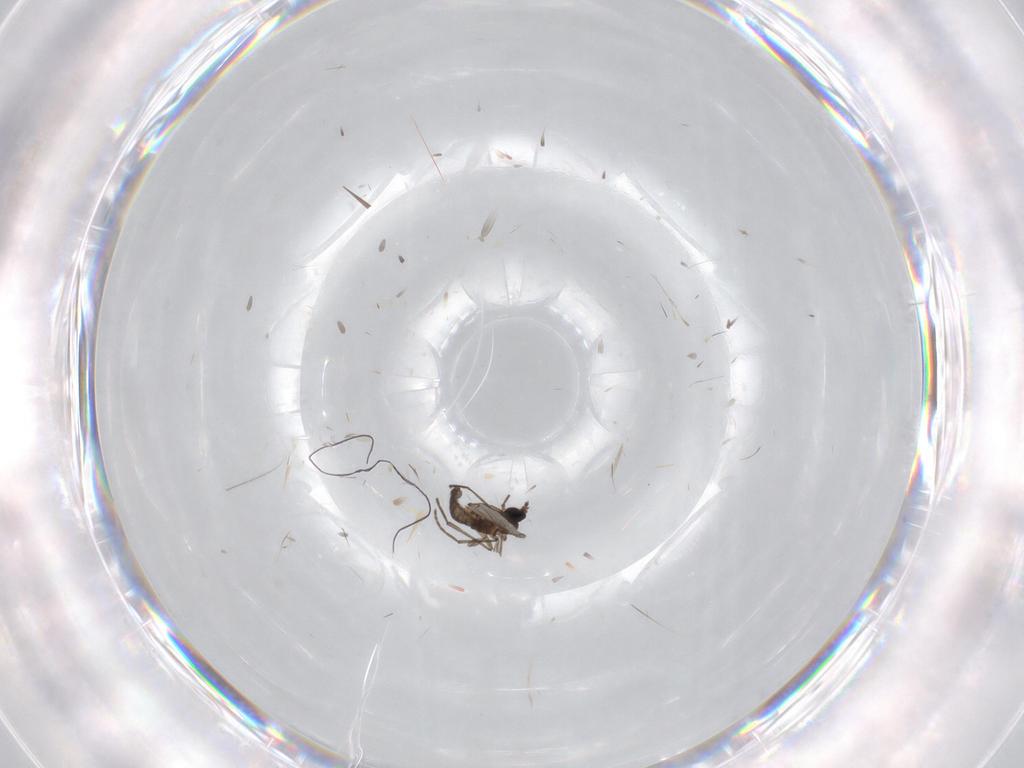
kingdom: Animalia
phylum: Arthropoda
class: Insecta
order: Diptera
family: Sciaridae
